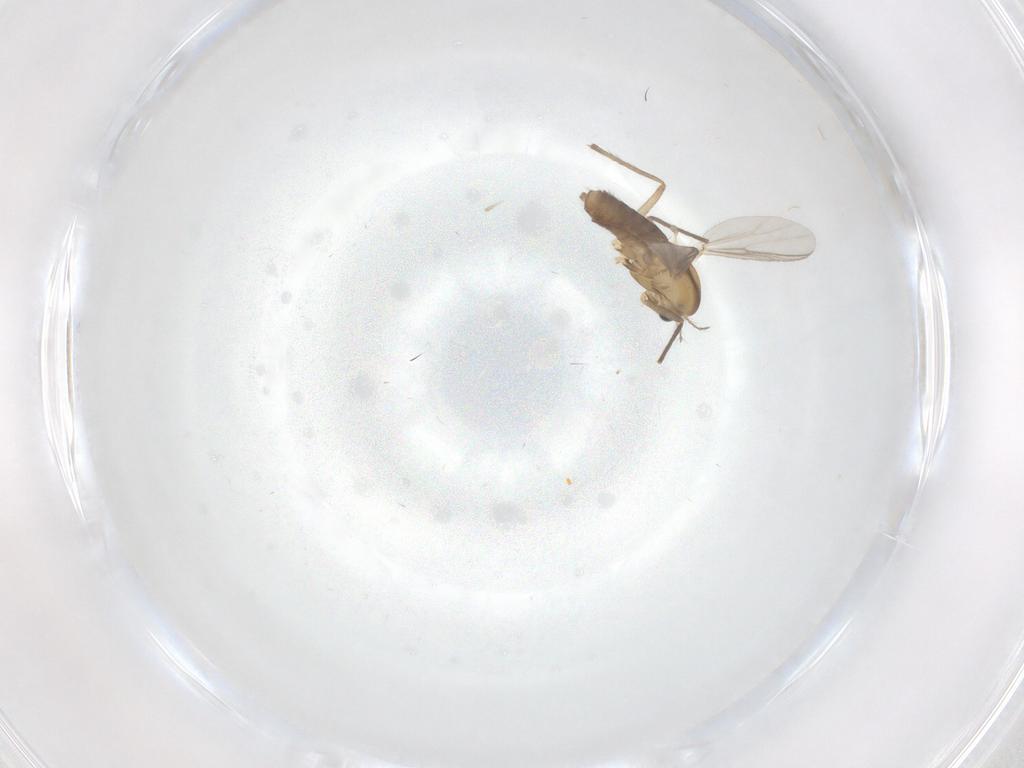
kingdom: Animalia
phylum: Arthropoda
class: Insecta
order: Diptera
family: Chironomidae
